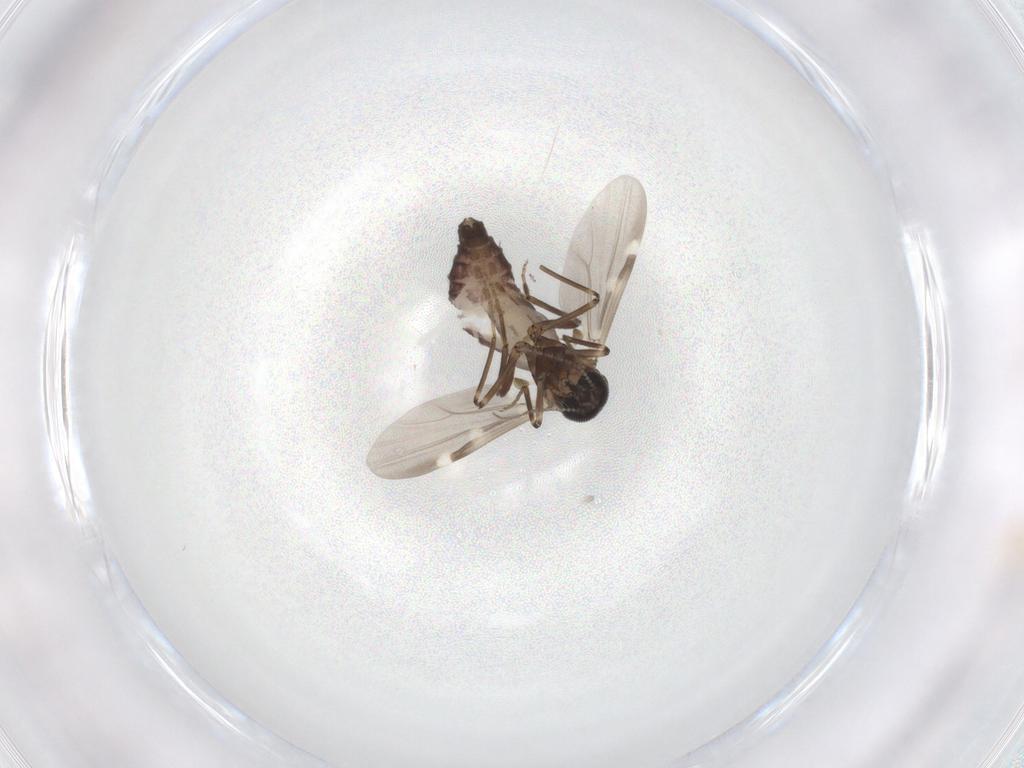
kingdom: Animalia
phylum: Arthropoda
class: Insecta
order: Diptera
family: Ceratopogonidae
